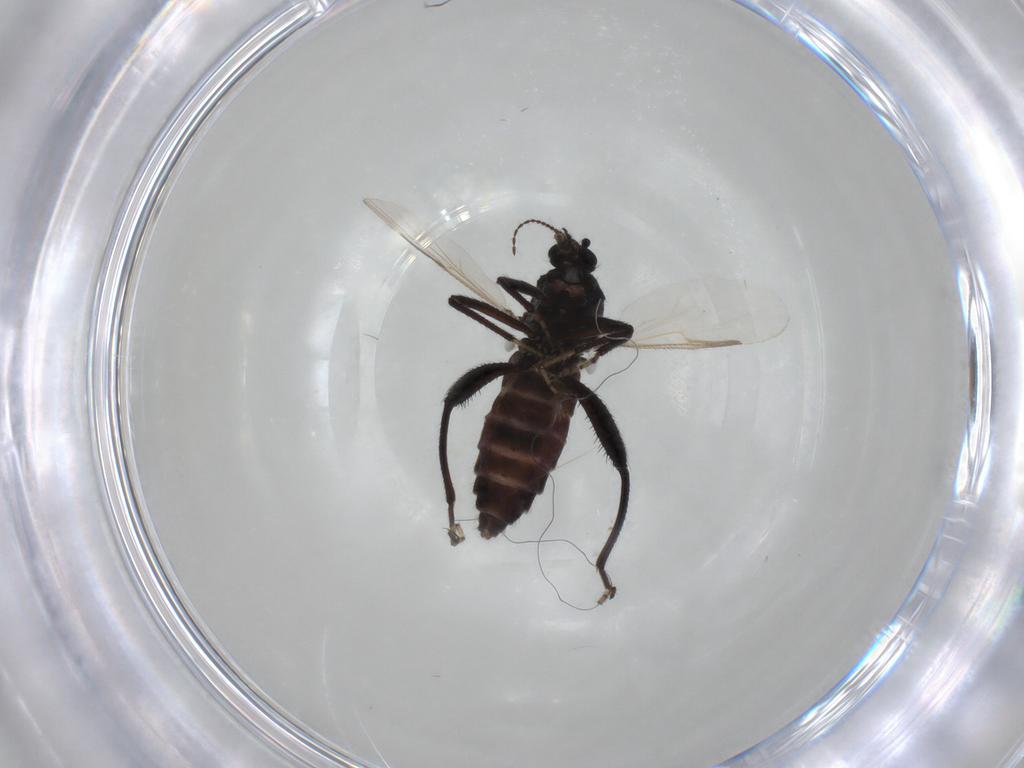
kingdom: Animalia
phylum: Arthropoda
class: Insecta
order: Diptera
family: Ceratopogonidae
